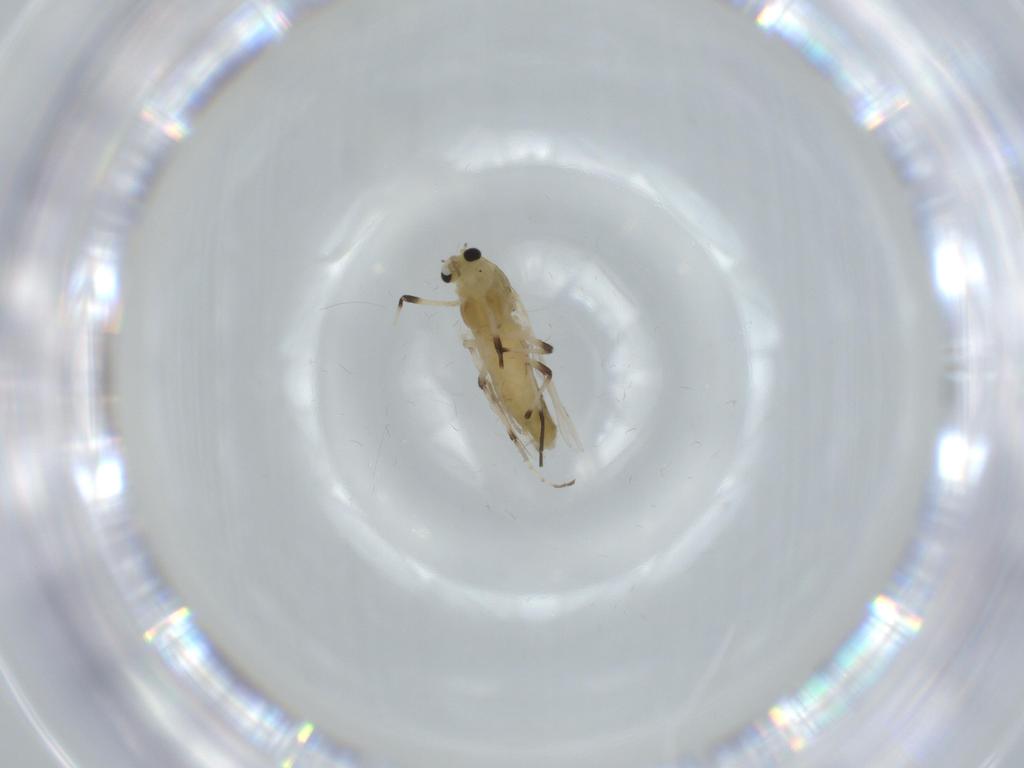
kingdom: Animalia
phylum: Arthropoda
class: Insecta
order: Diptera
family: Chironomidae
